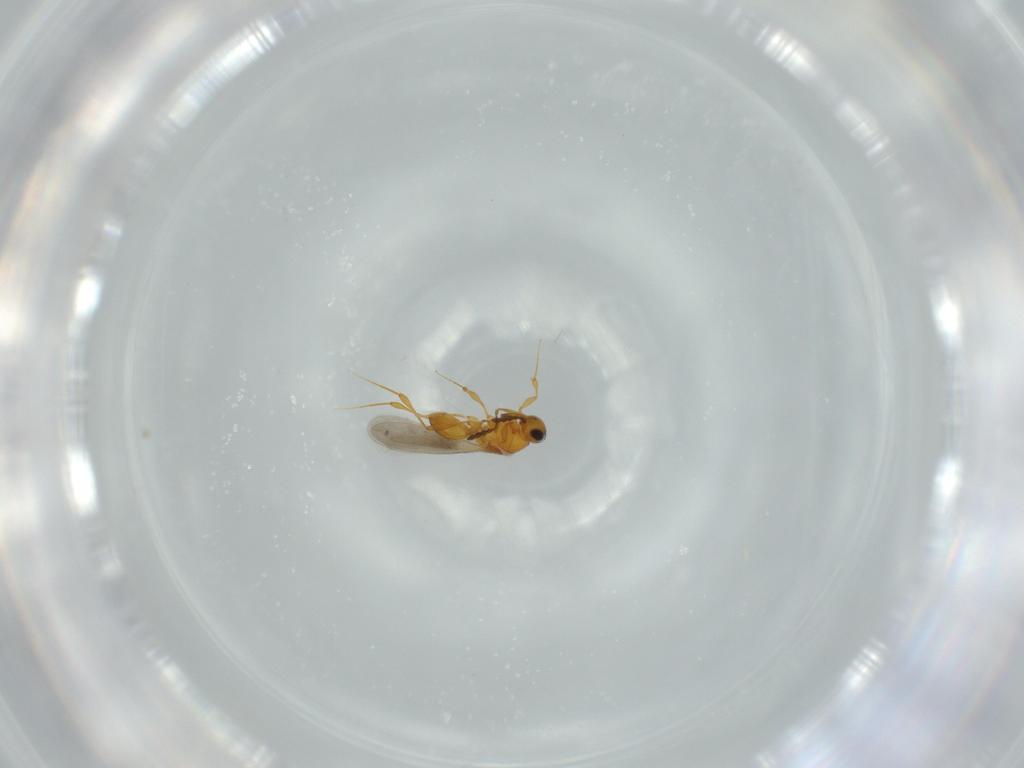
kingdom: Animalia
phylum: Arthropoda
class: Insecta
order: Hymenoptera
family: Platygastridae
